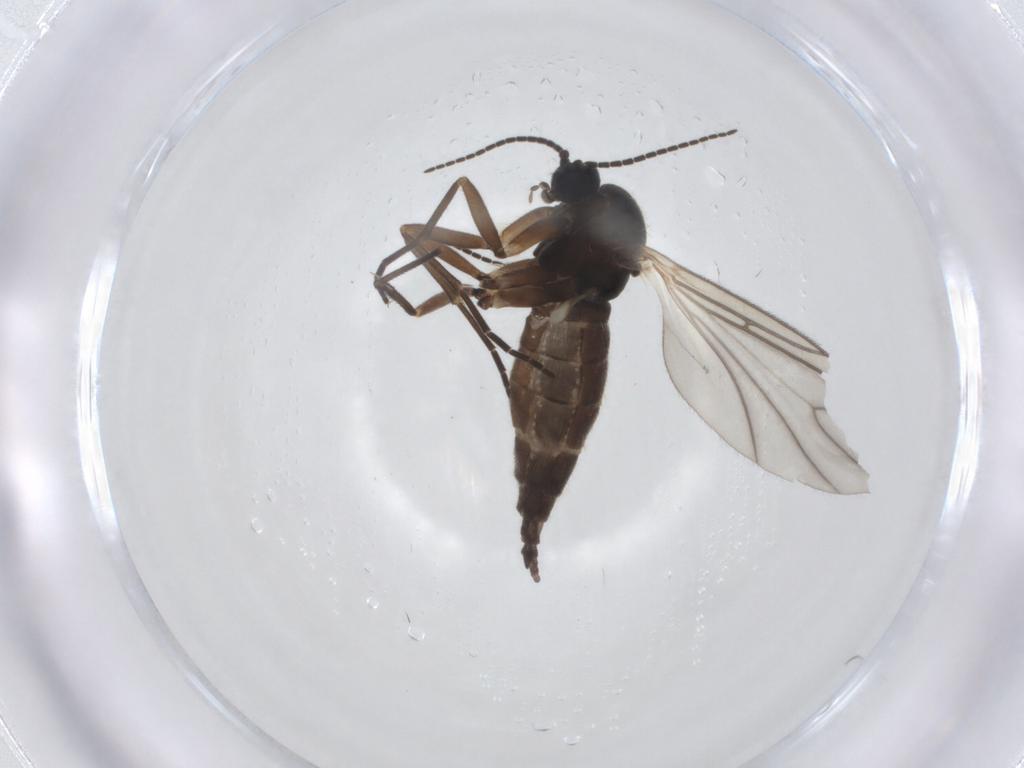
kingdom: Animalia
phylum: Arthropoda
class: Insecta
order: Diptera
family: Sciaridae
